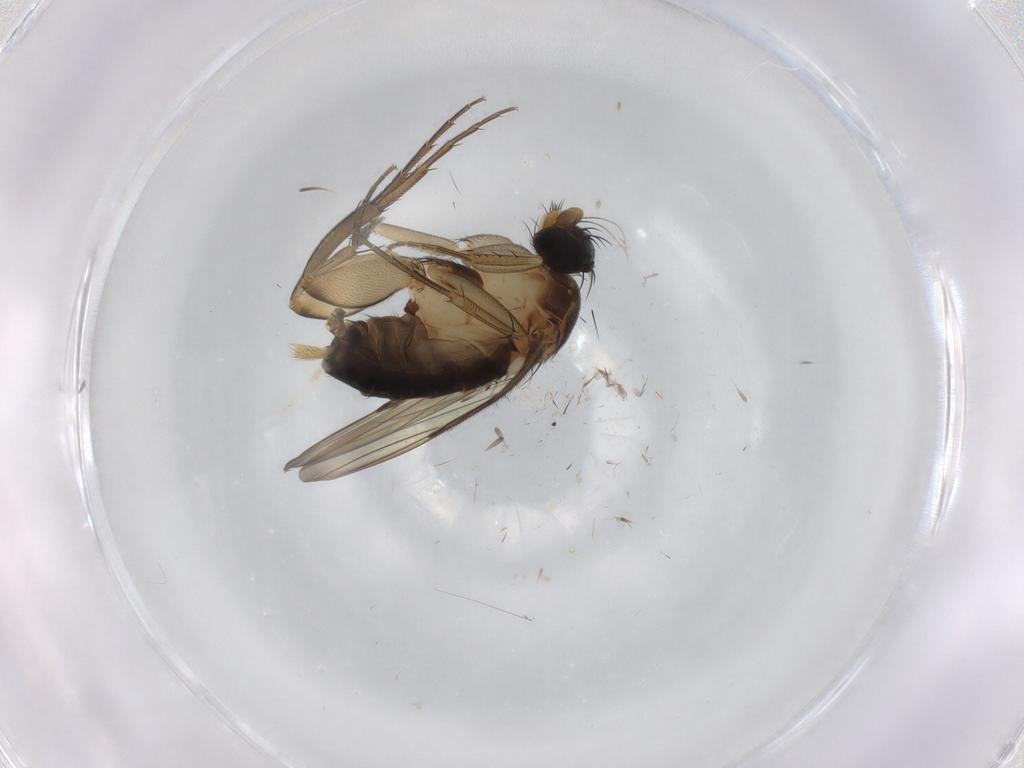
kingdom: Animalia
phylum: Arthropoda
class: Insecta
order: Diptera
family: Phoridae
